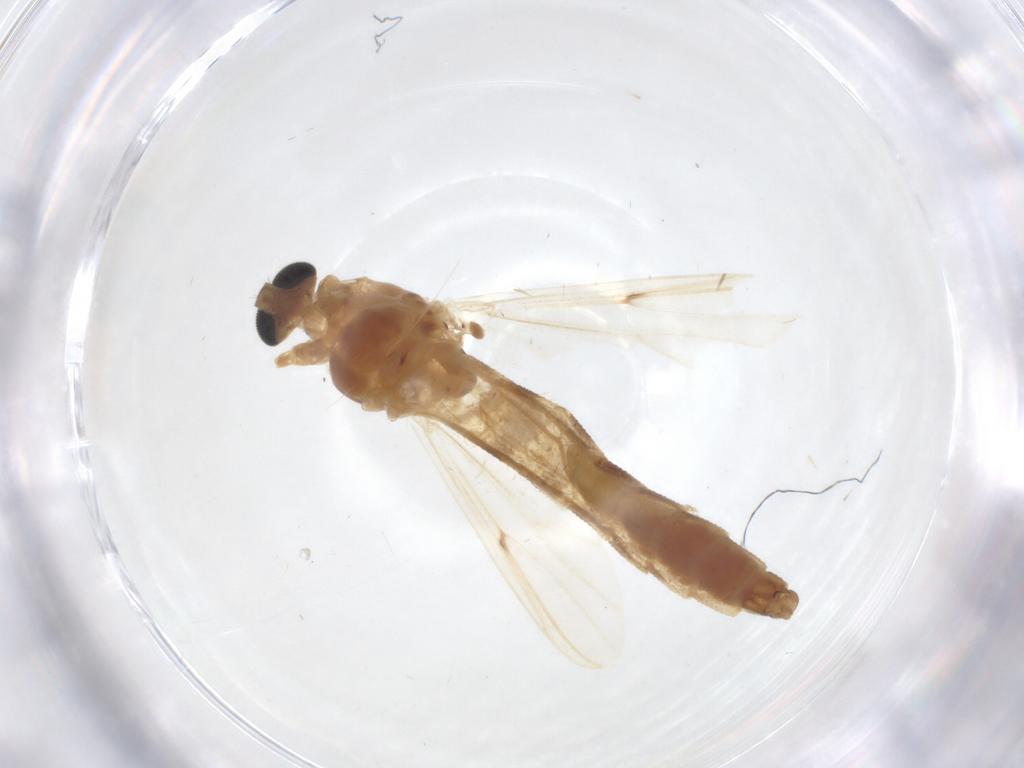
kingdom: Animalia
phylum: Arthropoda
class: Insecta
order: Diptera
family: Chironomidae
